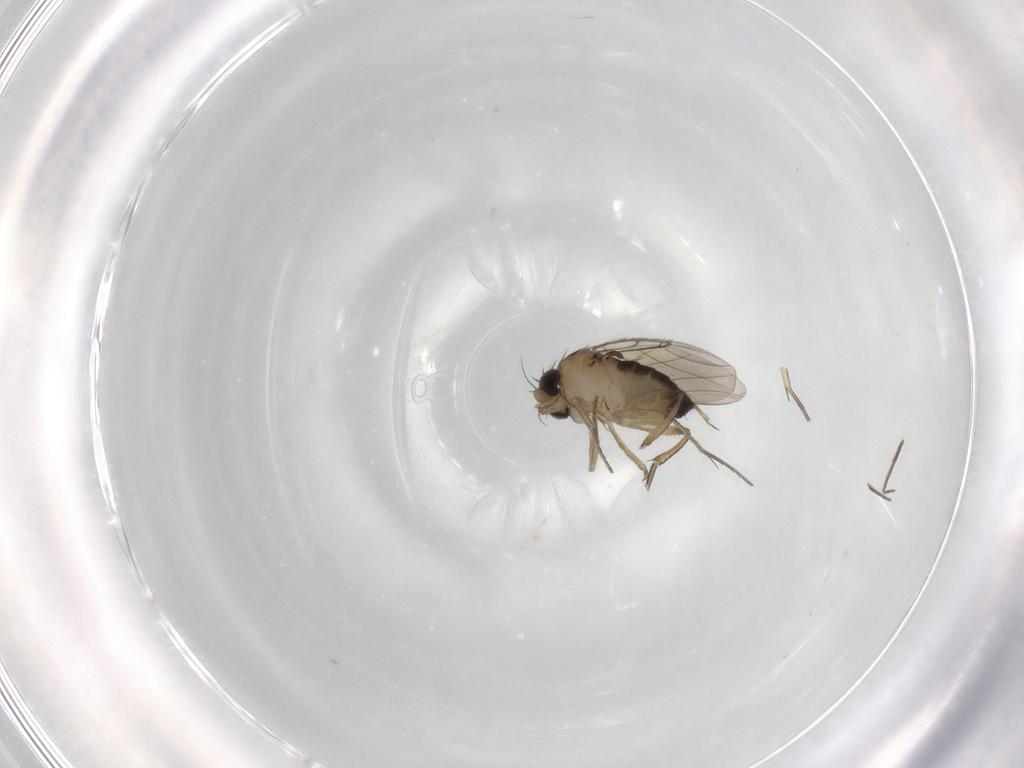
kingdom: Animalia
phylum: Arthropoda
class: Insecta
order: Diptera
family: Phoridae
